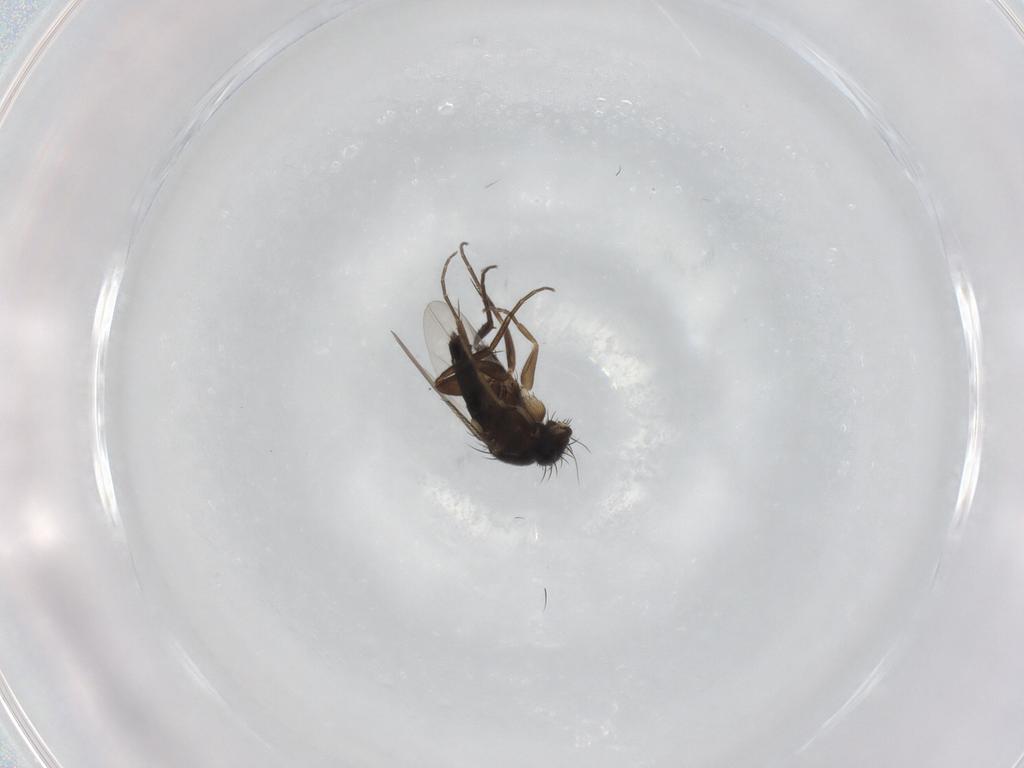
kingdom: Animalia
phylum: Arthropoda
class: Insecta
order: Diptera
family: Phoridae
